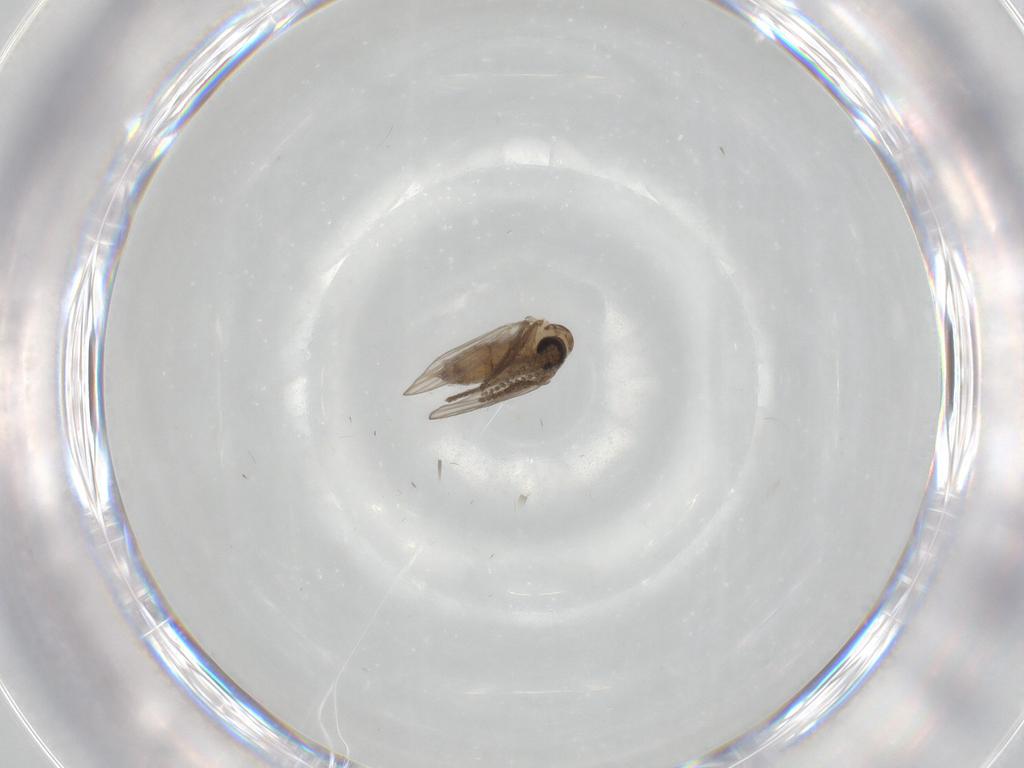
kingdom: Animalia
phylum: Arthropoda
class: Insecta
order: Diptera
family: Psychodidae
